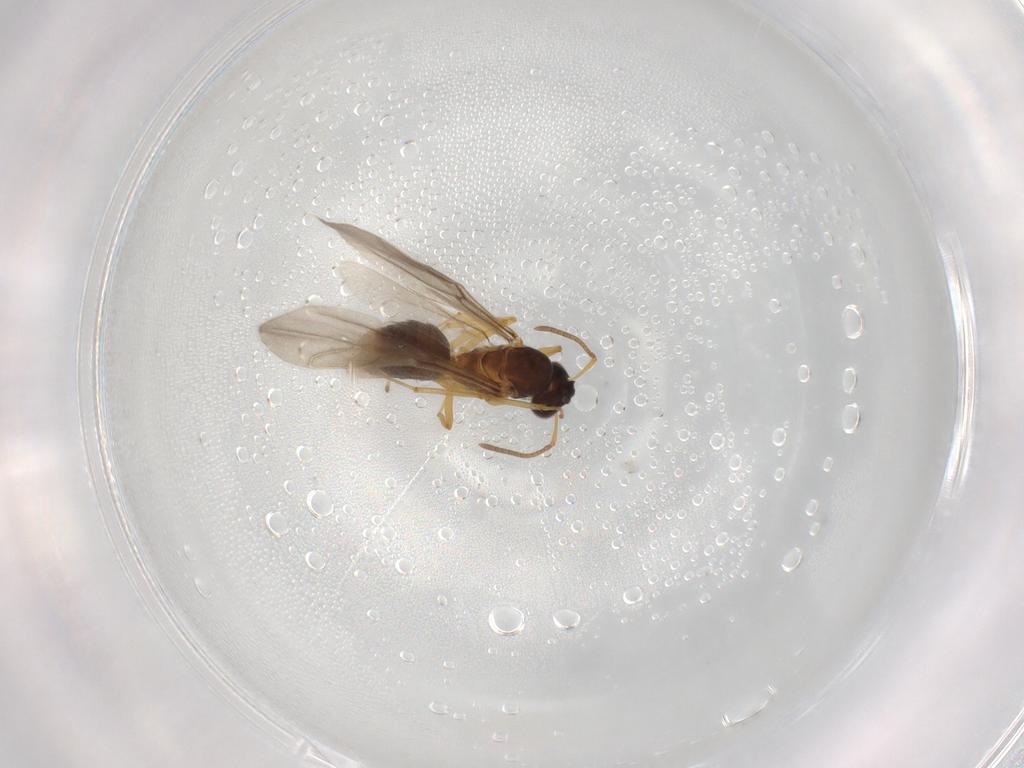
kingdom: Animalia
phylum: Arthropoda
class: Insecta
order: Hymenoptera
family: Formicidae
